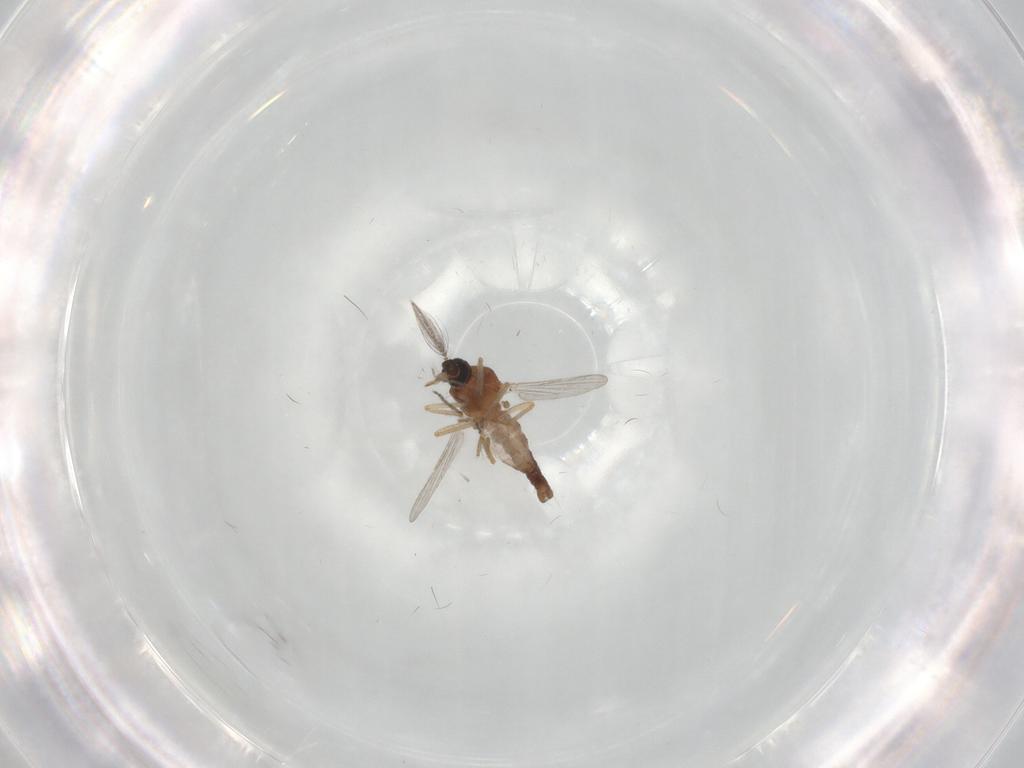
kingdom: Animalia
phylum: Arthropoda
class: Insecta
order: Diptera
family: Ceratopogonidae
